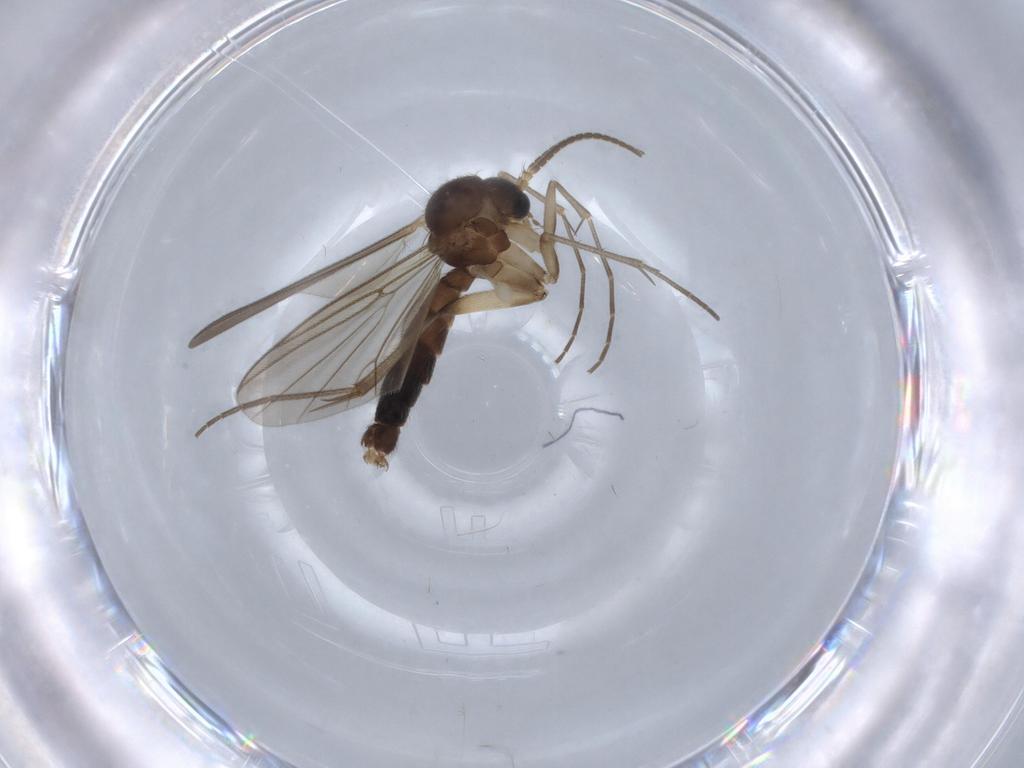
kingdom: Animalia
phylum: Arthropoda
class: Insecta
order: Diptera
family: Mycetophilidae
